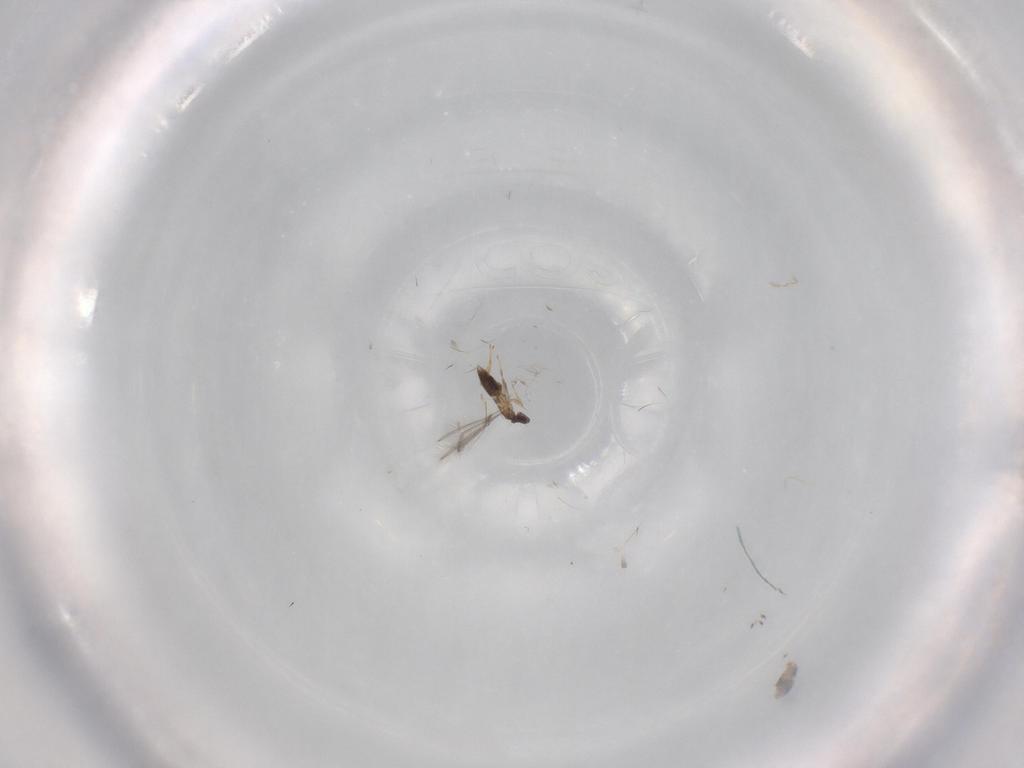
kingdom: Animalia
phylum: Arthropoda
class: Insecta
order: Hymenoptera
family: Mymaridae
